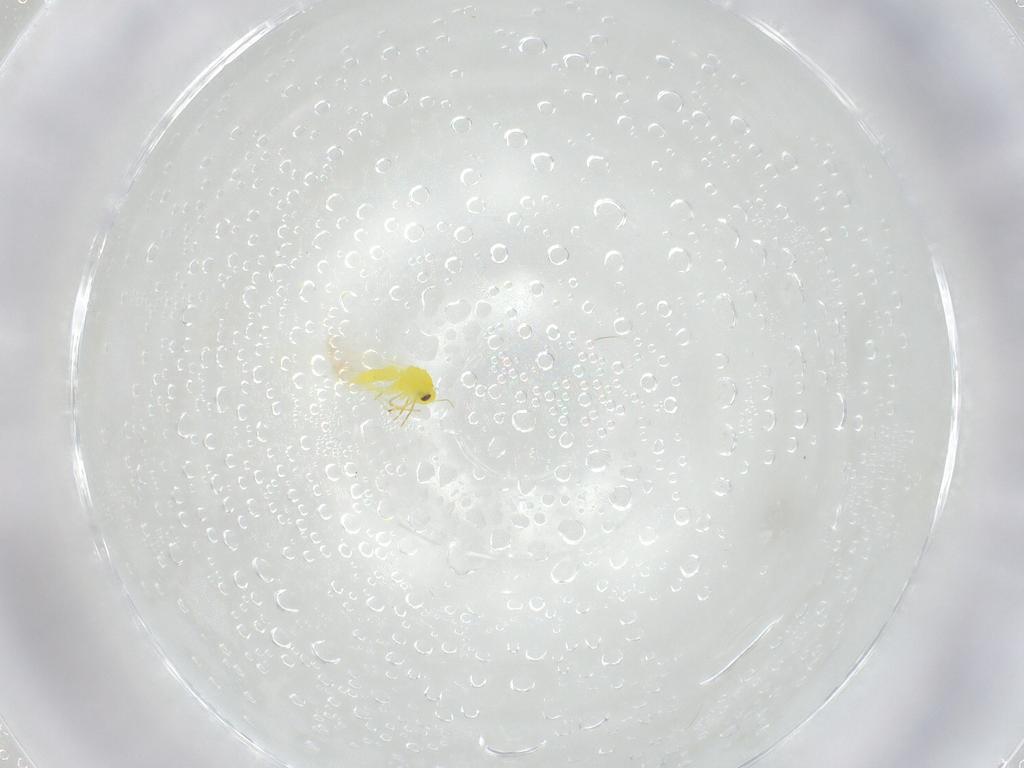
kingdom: Animalia
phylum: Arthropoda
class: Insecta
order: Hemiptera
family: Aleyrodidae
